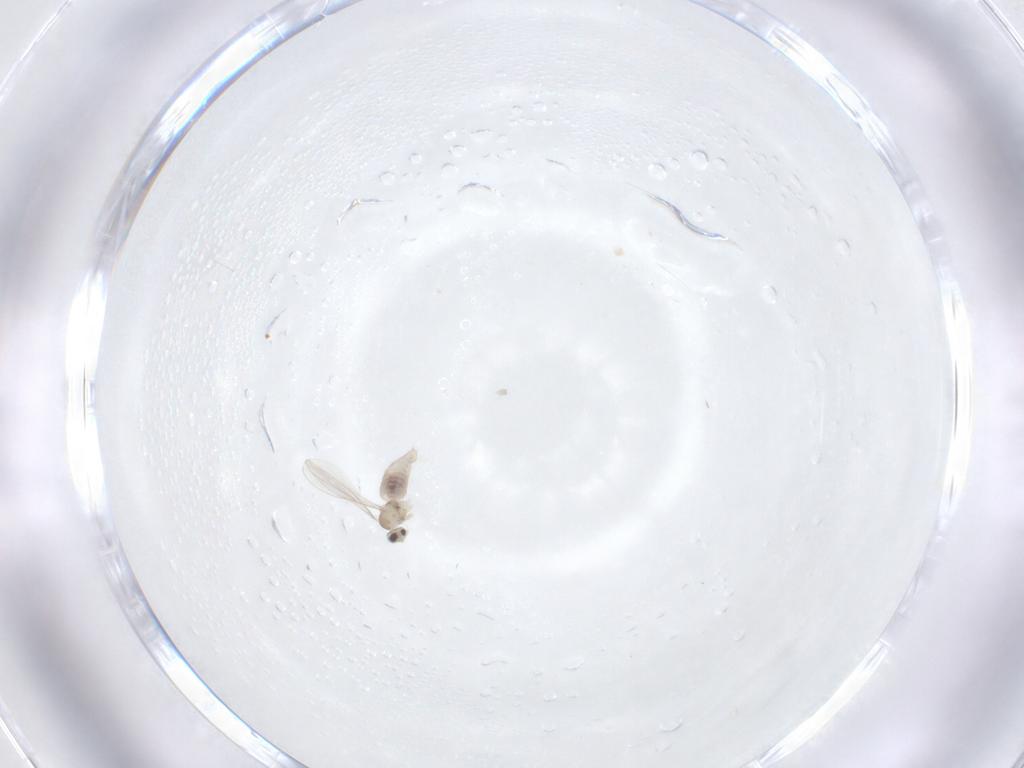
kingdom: Animalia
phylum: Arthropoda
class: Insecta
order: Diptera
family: Cecidomyiidae
